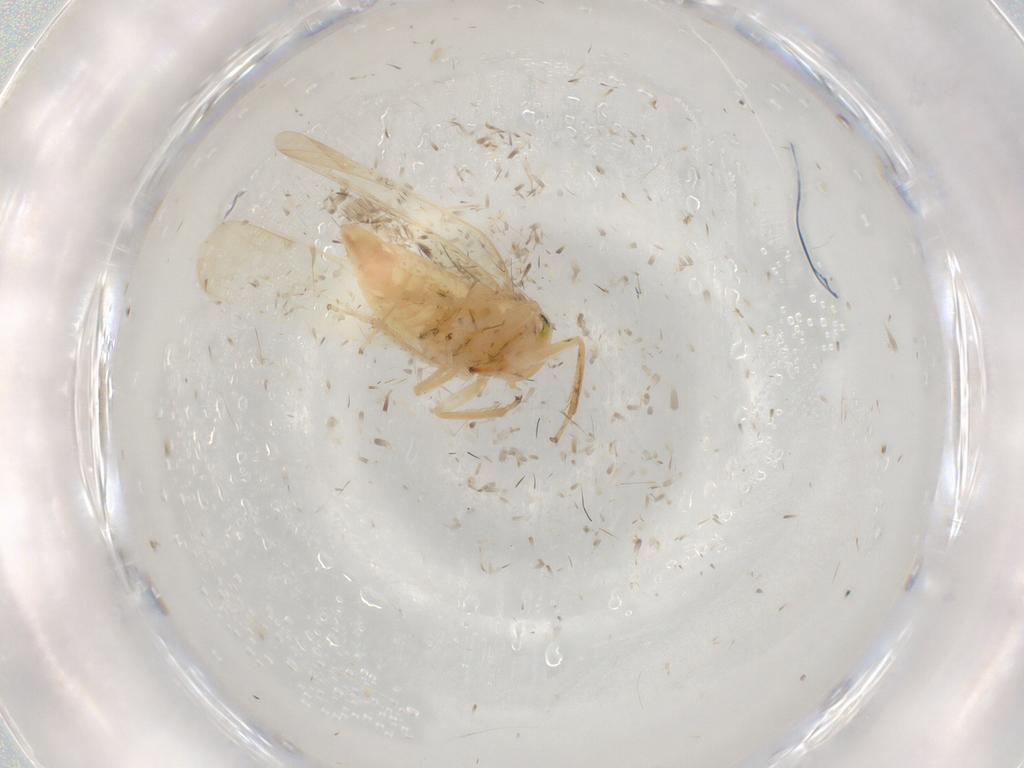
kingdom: Animalia
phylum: Arthropoda
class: Insecta
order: Hemiptera
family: Cicadellidae
